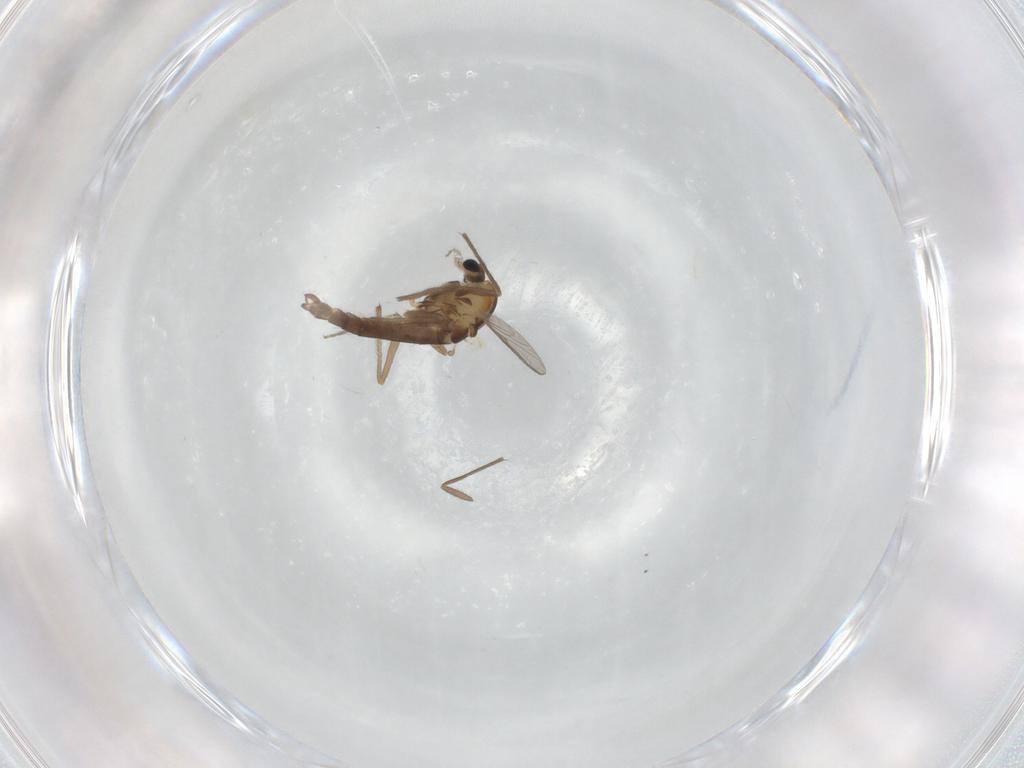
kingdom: Animalia
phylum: Arthropoda
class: Insecta
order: Diptera
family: Chironomidae
